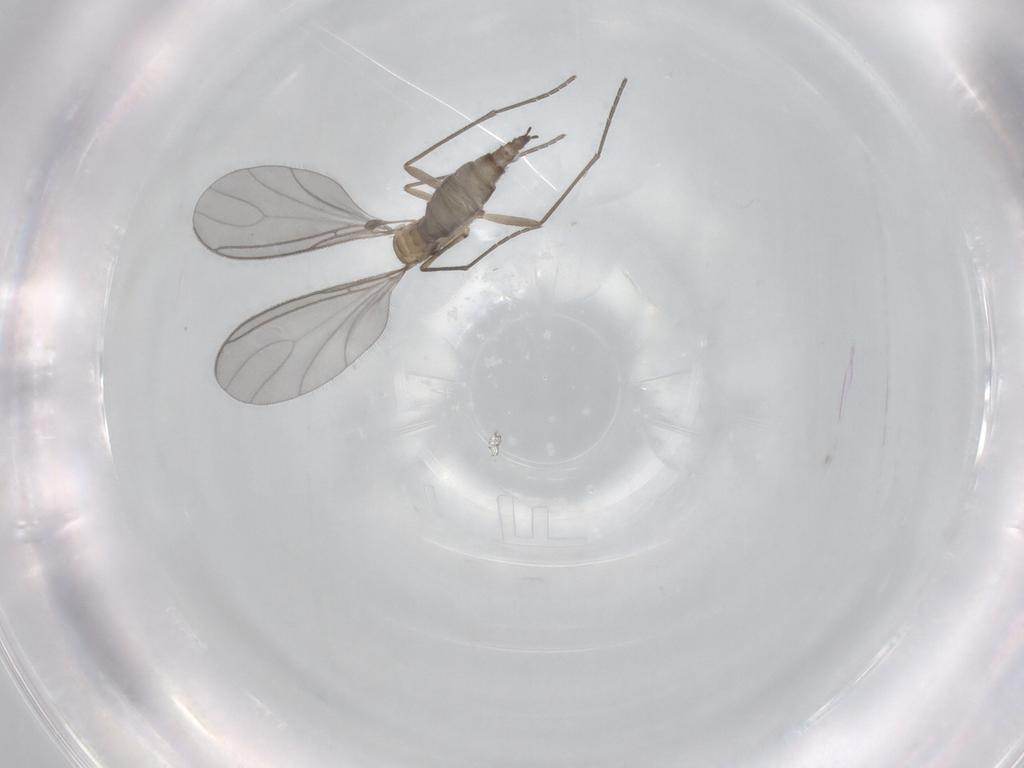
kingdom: Animalia
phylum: Arthropoda
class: Insecta
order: Diptera
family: Sciaridae
